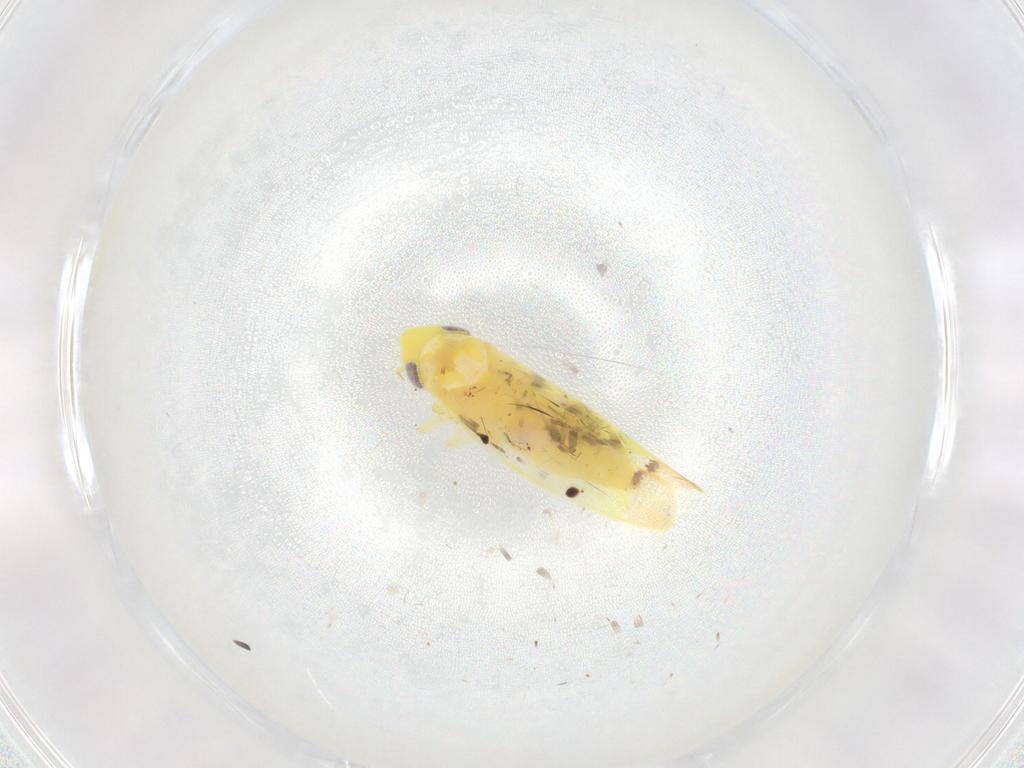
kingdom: Animalia
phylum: Arthropoda
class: Insecta
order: Hemiptera
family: Cicadellidae
